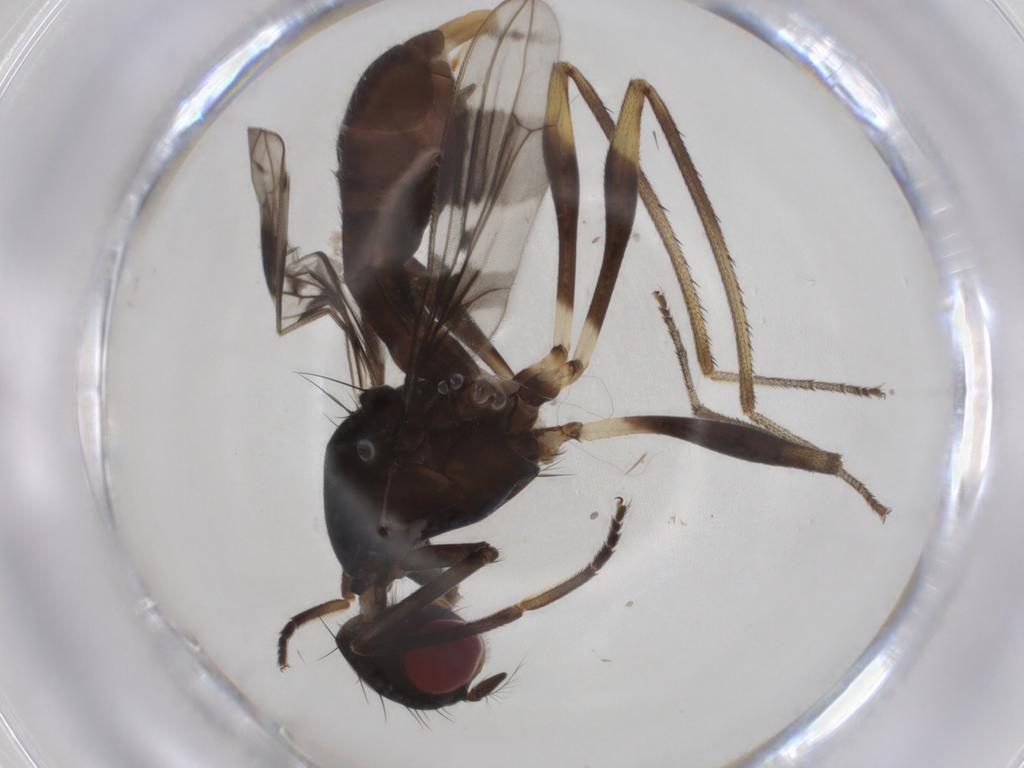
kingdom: Animalia
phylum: Arthropoda
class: Insecta
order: Diptera
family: Micropezidae
